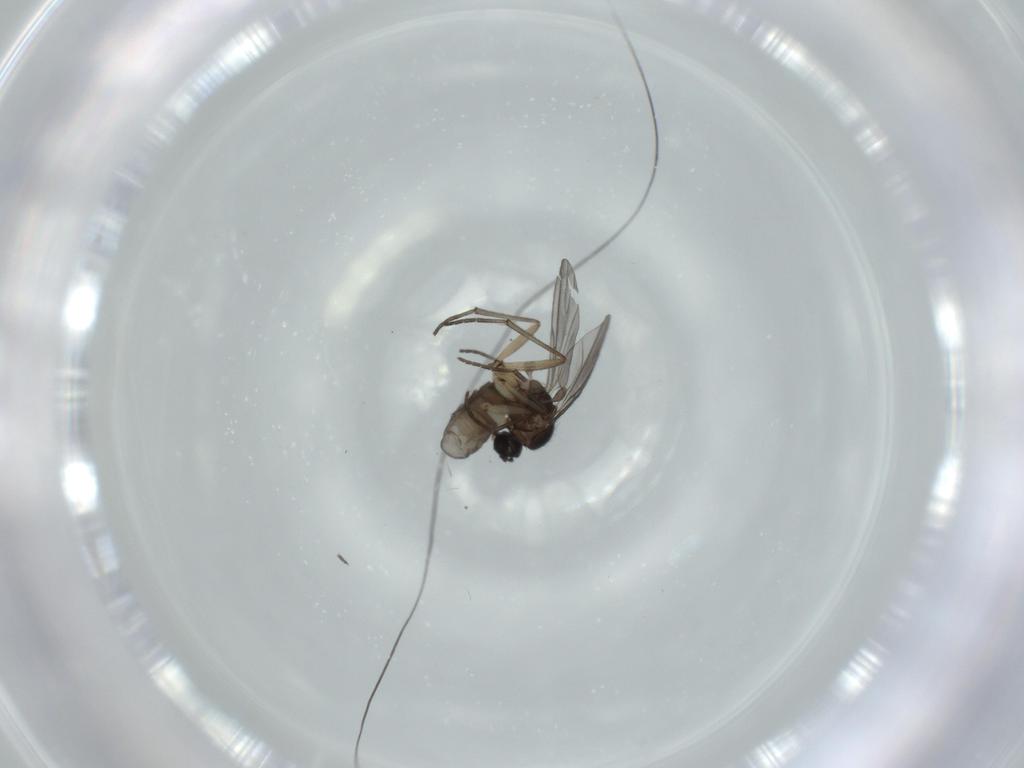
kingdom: Animalia
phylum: Arthropoda
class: Insecta
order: Diptera
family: Sciaridae
